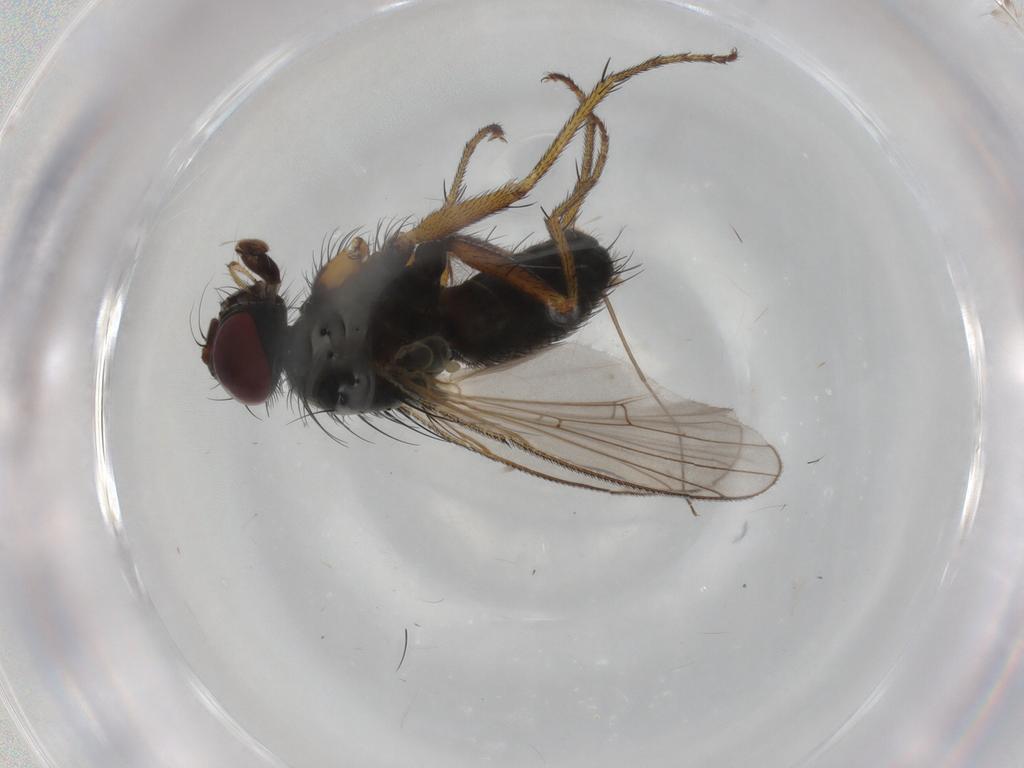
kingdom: Animalia
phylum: Arthropoda
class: Insecta
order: Diptera
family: Muscidae
